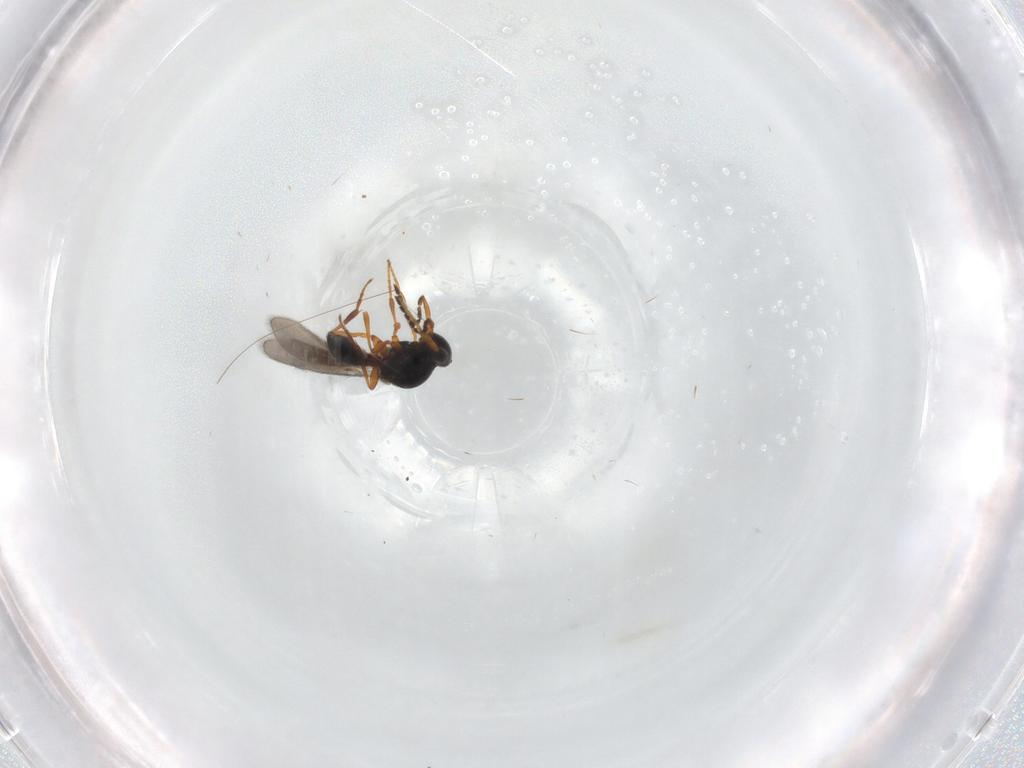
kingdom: Animalia
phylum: Arthropoda
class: Insecta
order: Hymenoptera
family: Platygastridae
